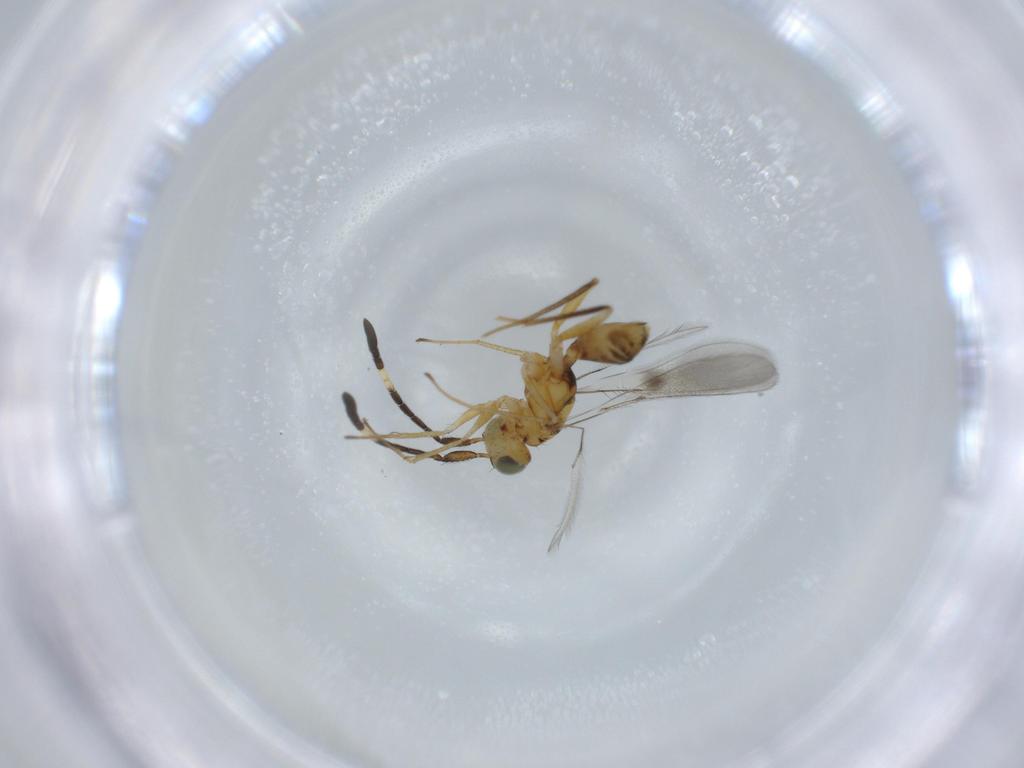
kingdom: Animalia
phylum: Arthropoda
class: Insecta
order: Hymenoptera
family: Mymaridae
